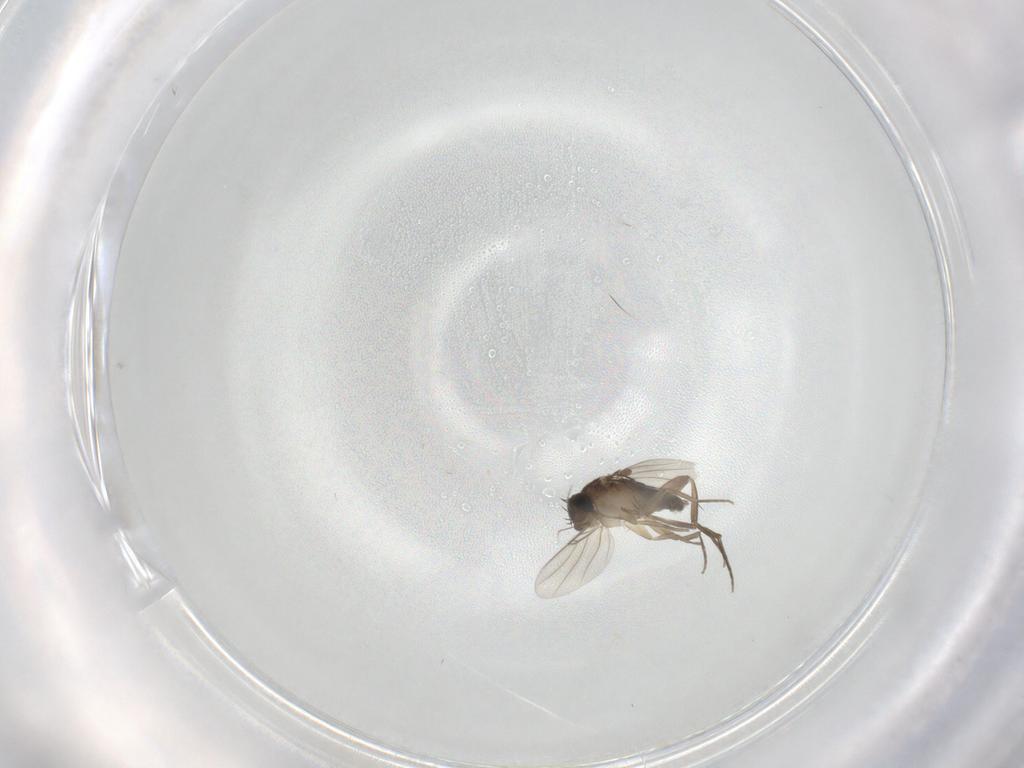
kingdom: Animalia
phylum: Arthropoda
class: Insecta
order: Diptera
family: Phoridae
